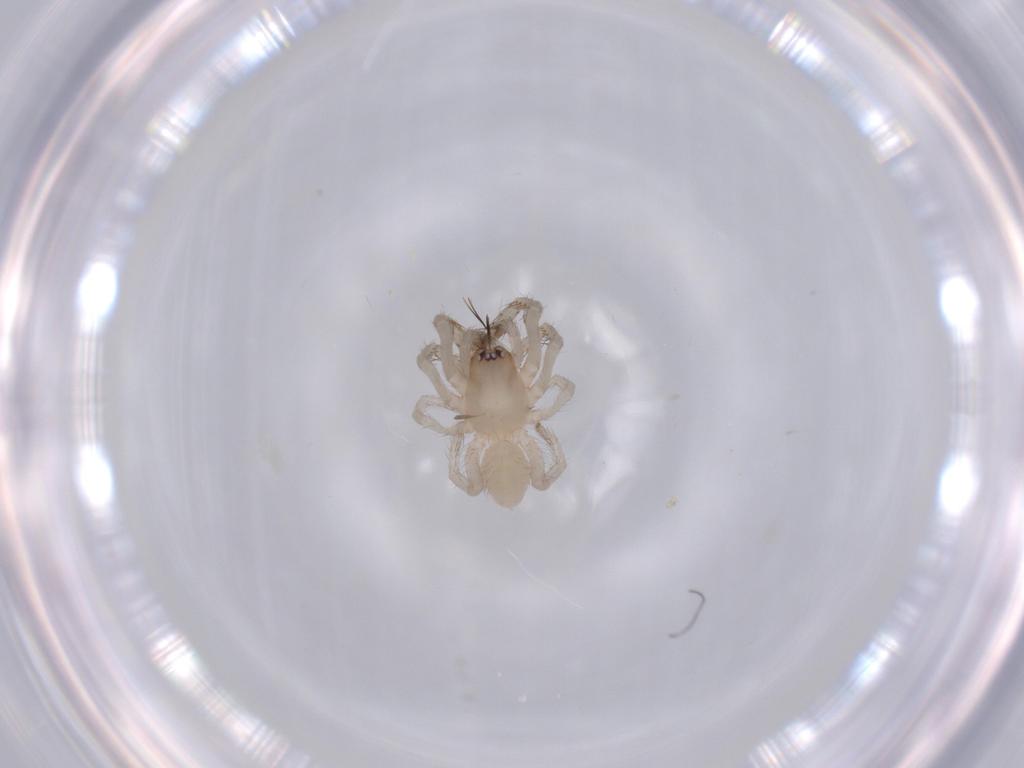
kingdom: Animalia
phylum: Arthropoda
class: Arachnida
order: Araneae
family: Segestriidae
